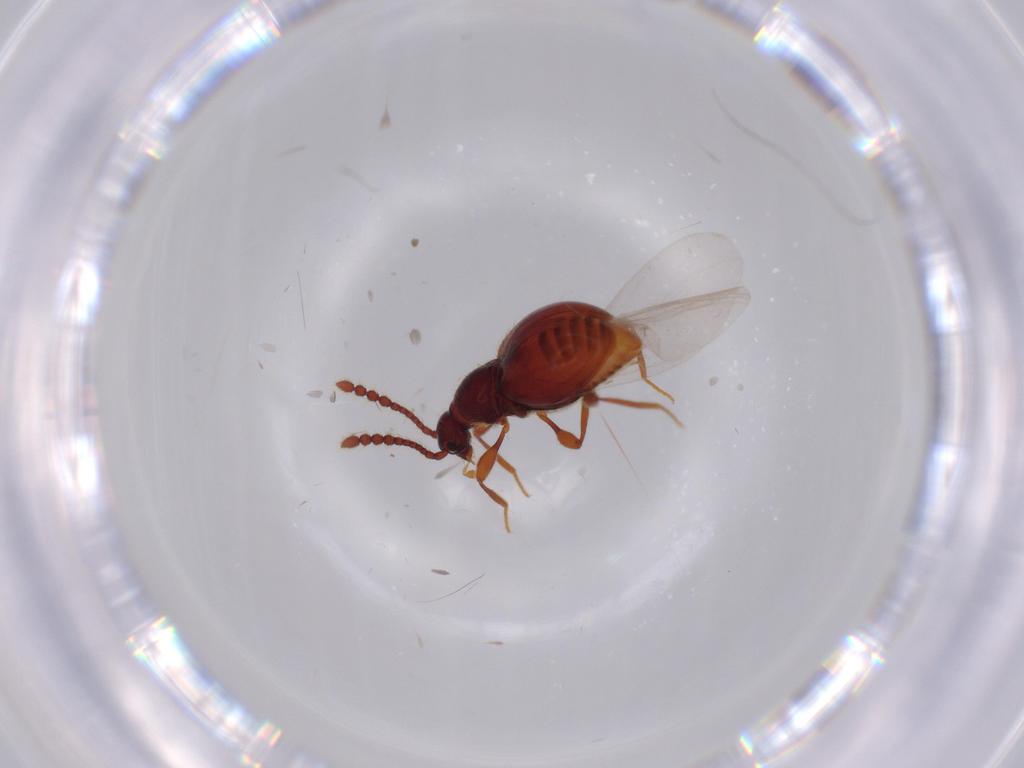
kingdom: Animalia
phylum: Arthropoda
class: Insecta
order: Coleoptera
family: Staphylinidae
